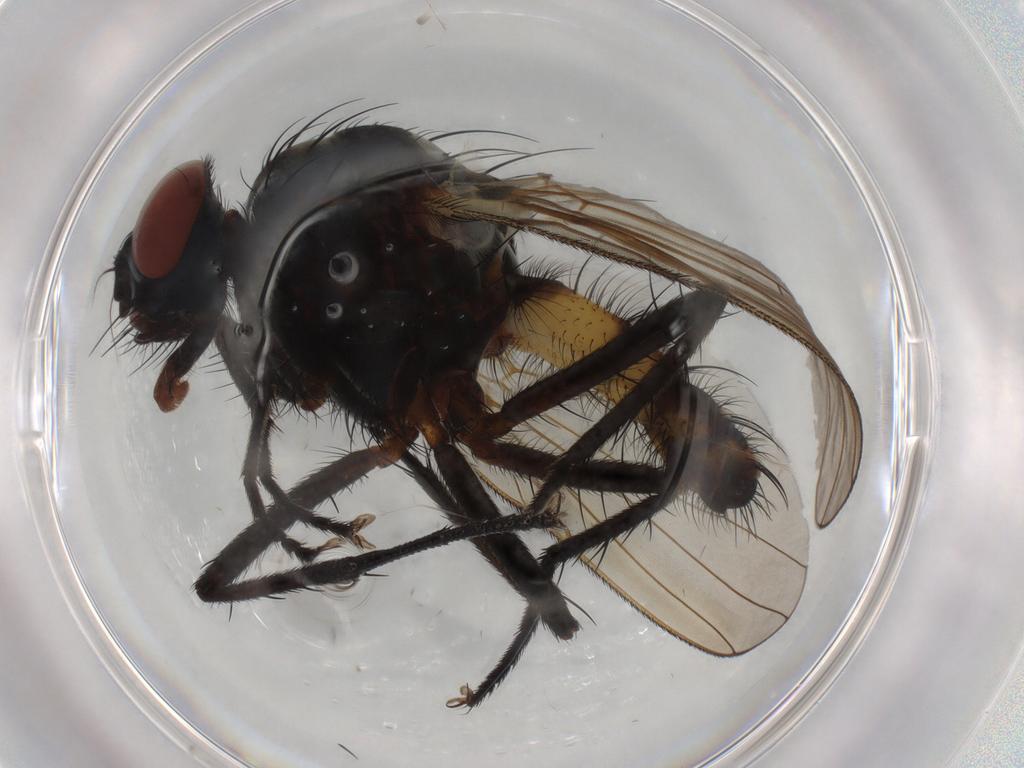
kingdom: Animalia
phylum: Arthropoda
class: Insecta
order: Diptera
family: Anthomyiidae
